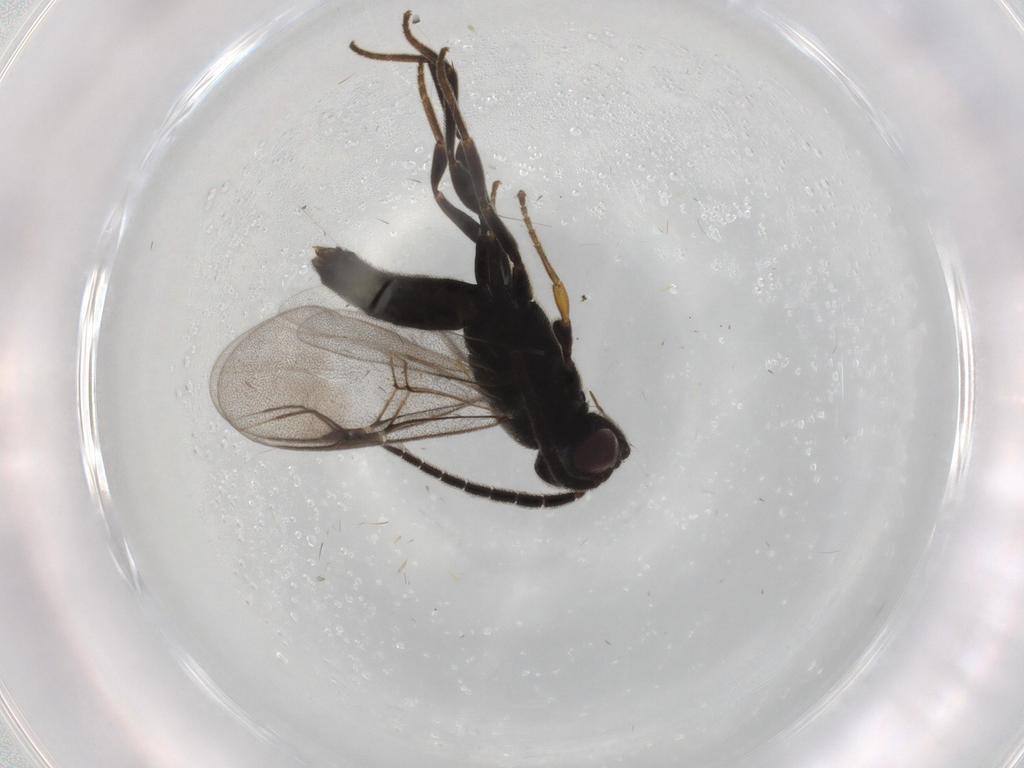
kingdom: Animalia
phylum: Arthropoda
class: Insecta
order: Hymenoptera
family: Dryinidae
